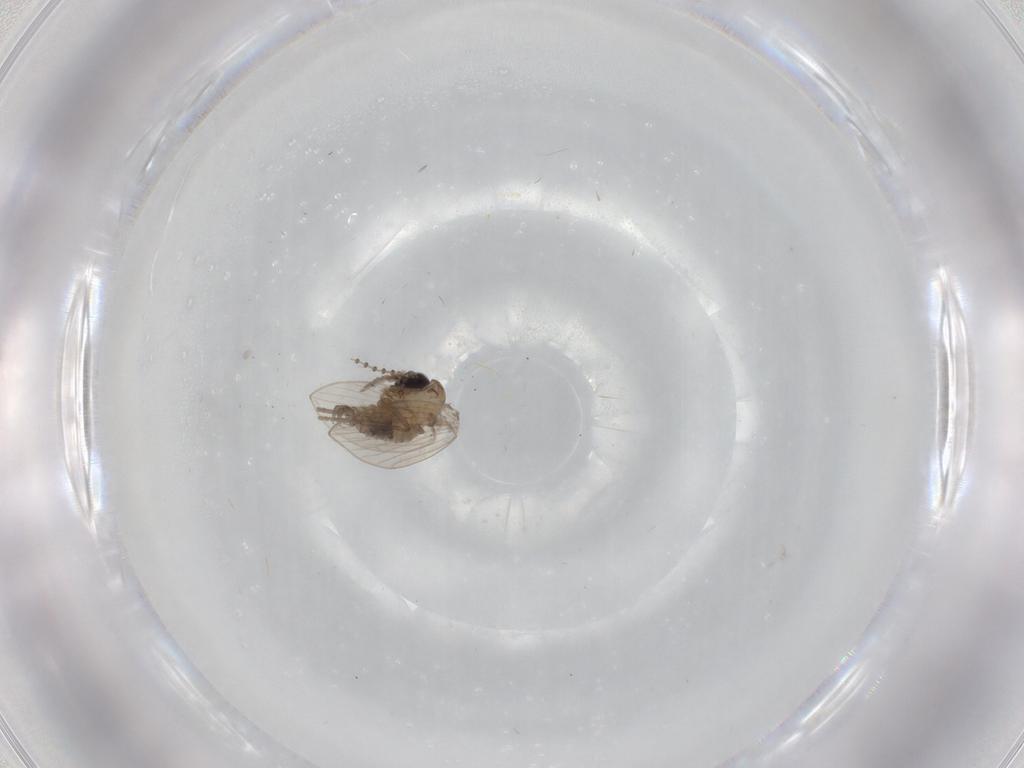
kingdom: Animalia
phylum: Arthropoda
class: Insecta
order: Diptera
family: Psychodidae
